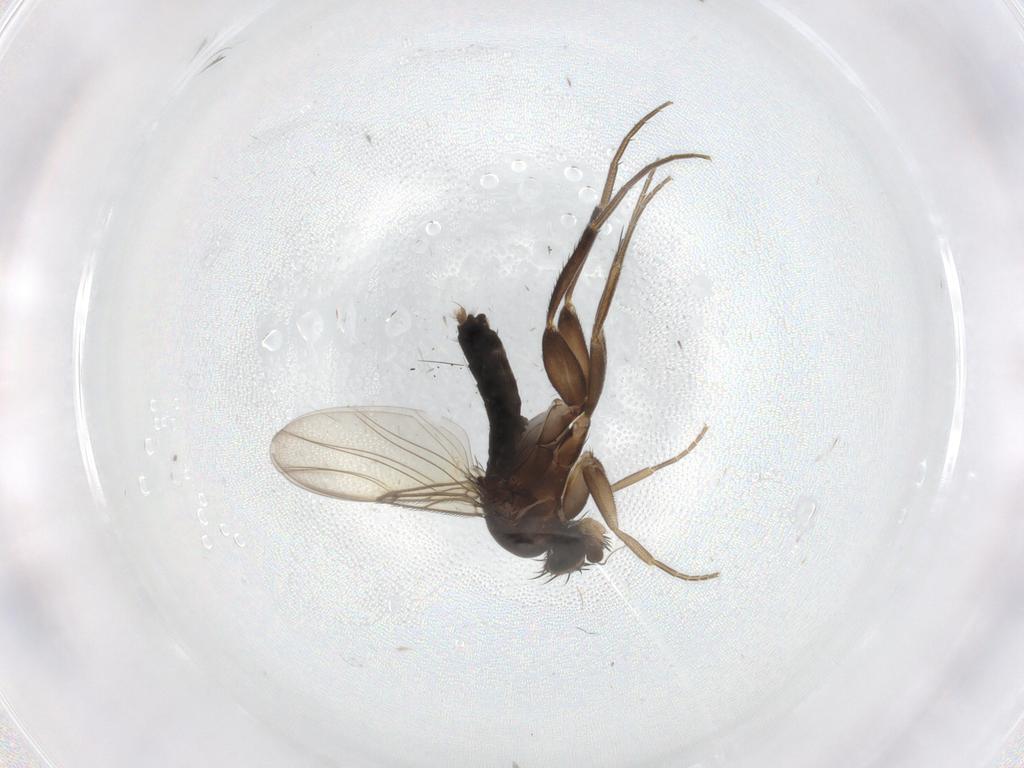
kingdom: Animalia
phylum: Arthropoda
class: Insecta
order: Diptera
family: Phoridae
